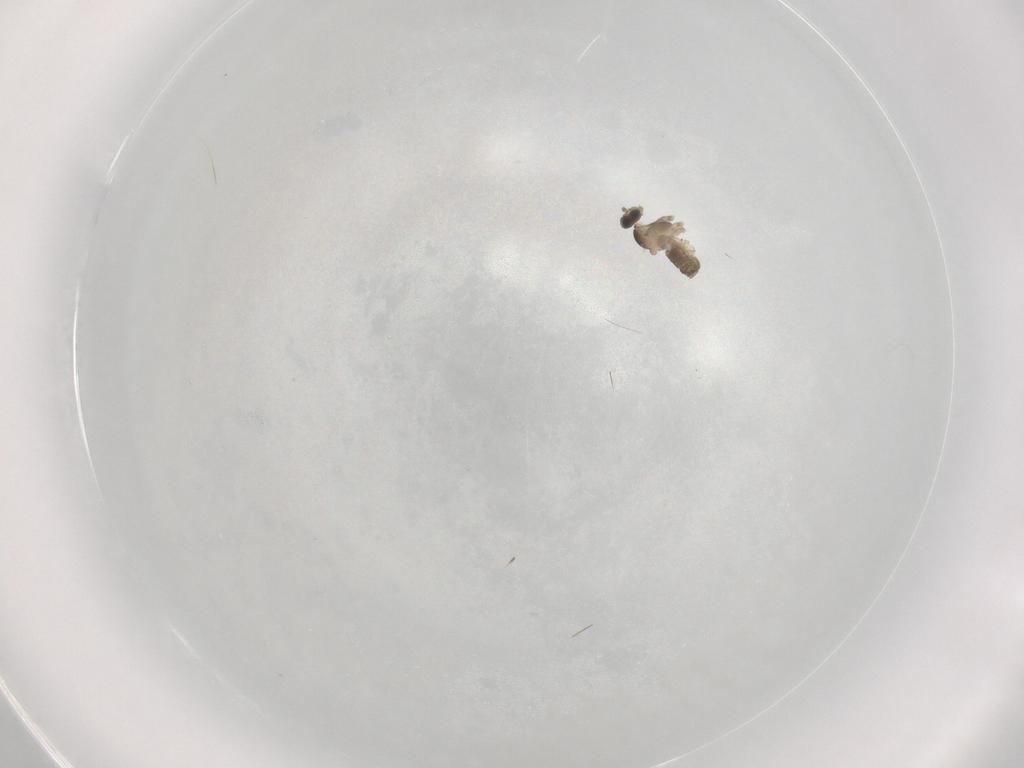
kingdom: Animalia
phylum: Arthropoda
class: Insecta
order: Diptera
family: Cecidomyiidae
